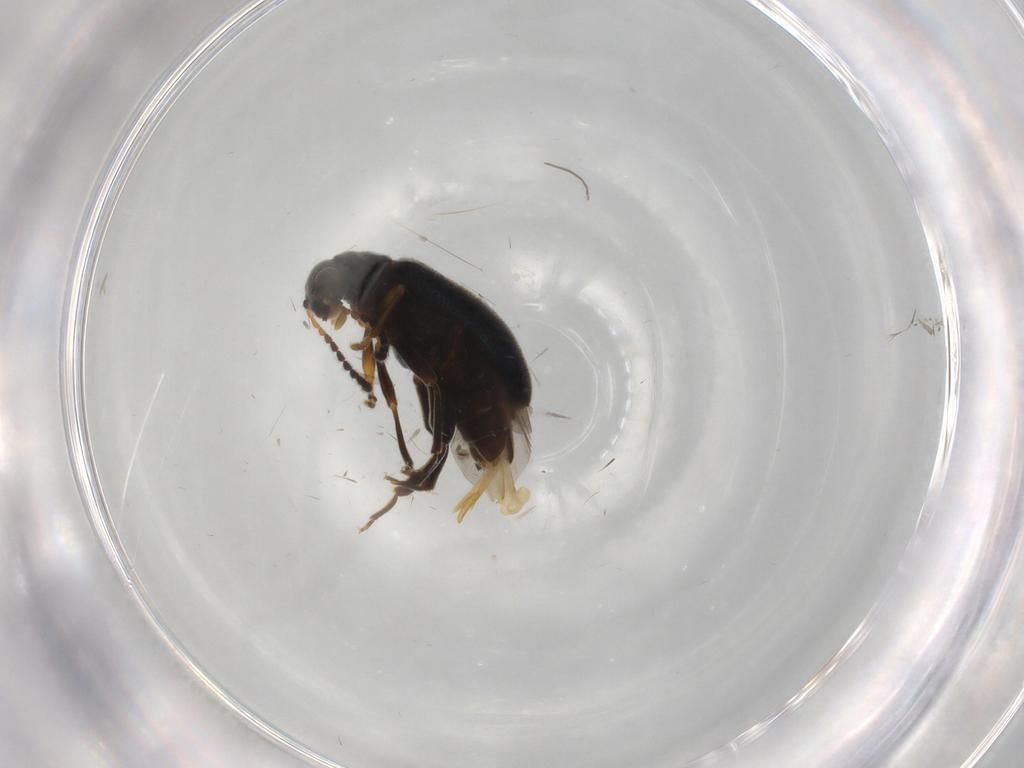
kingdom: Animalia
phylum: Arthropoda
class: Insecta
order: Coleoptera
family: Aderidae
